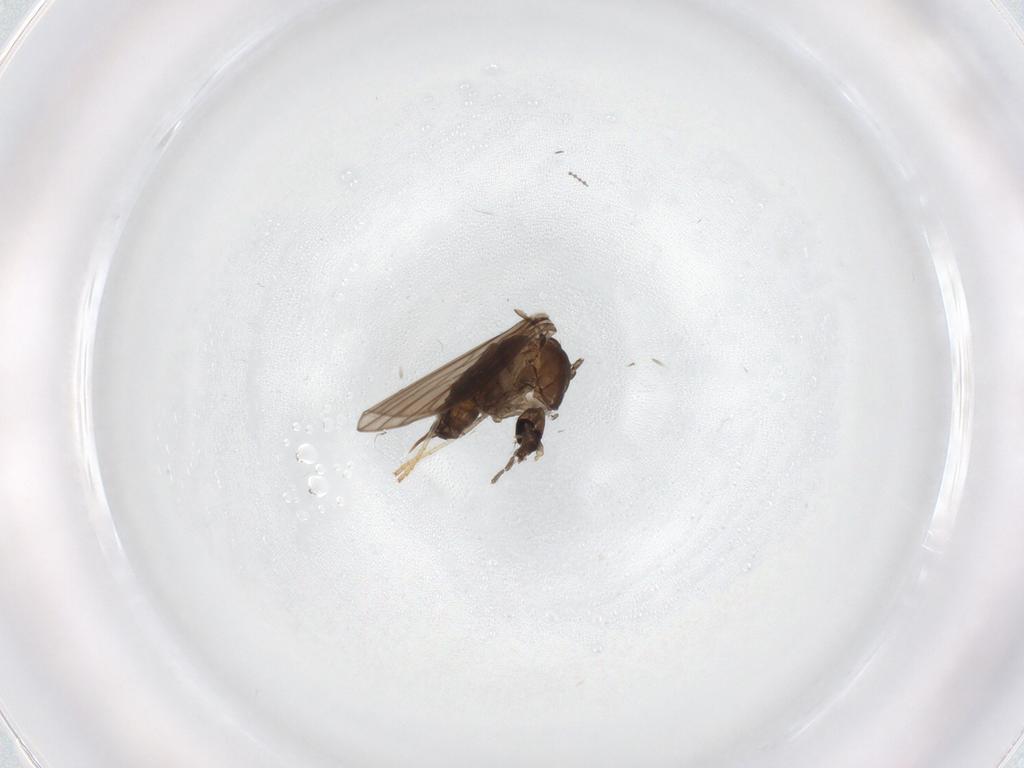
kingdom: Animalia
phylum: Arthropoda
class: Insecta
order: Diptera
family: Psychodidae
